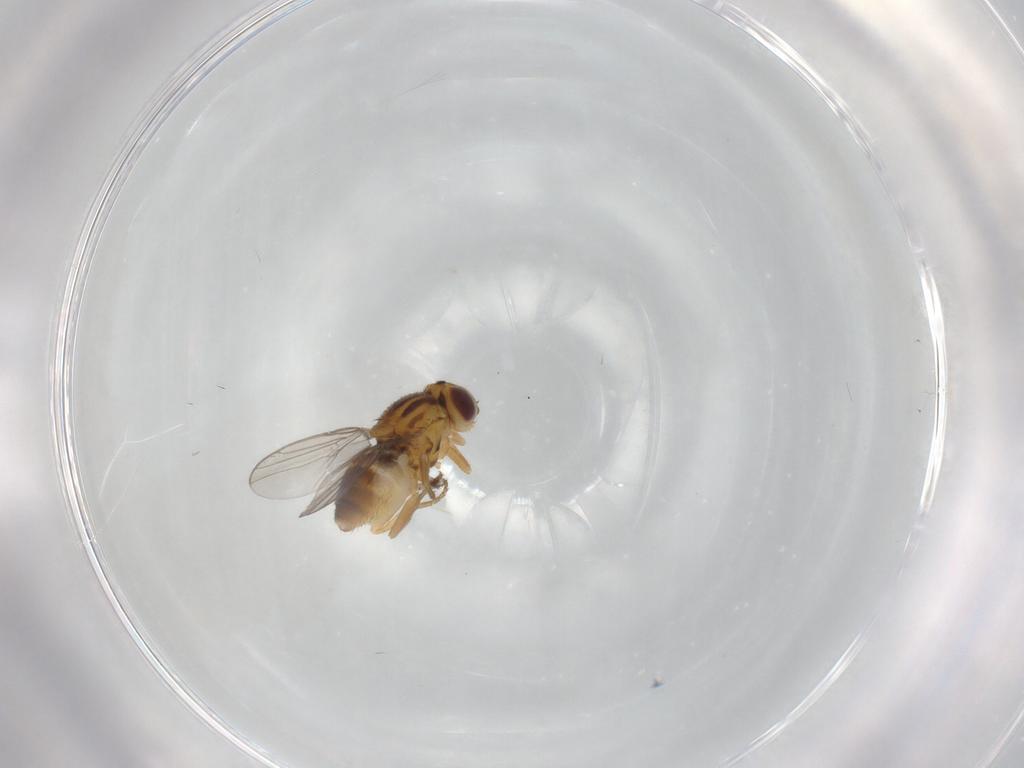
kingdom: Animalia
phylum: Arthropoda
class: Insecta
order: Diptera
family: Chloropidae
